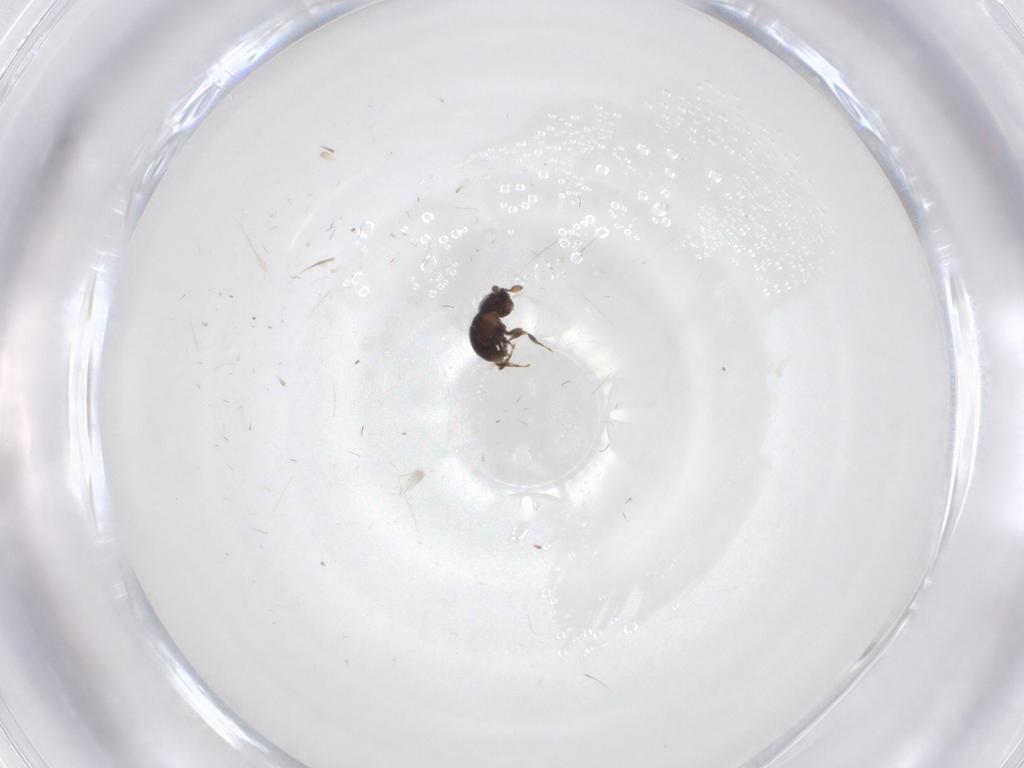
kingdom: Animalia
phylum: Arthropoda
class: Insecta
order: Hymenoptera
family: Scelionidae
